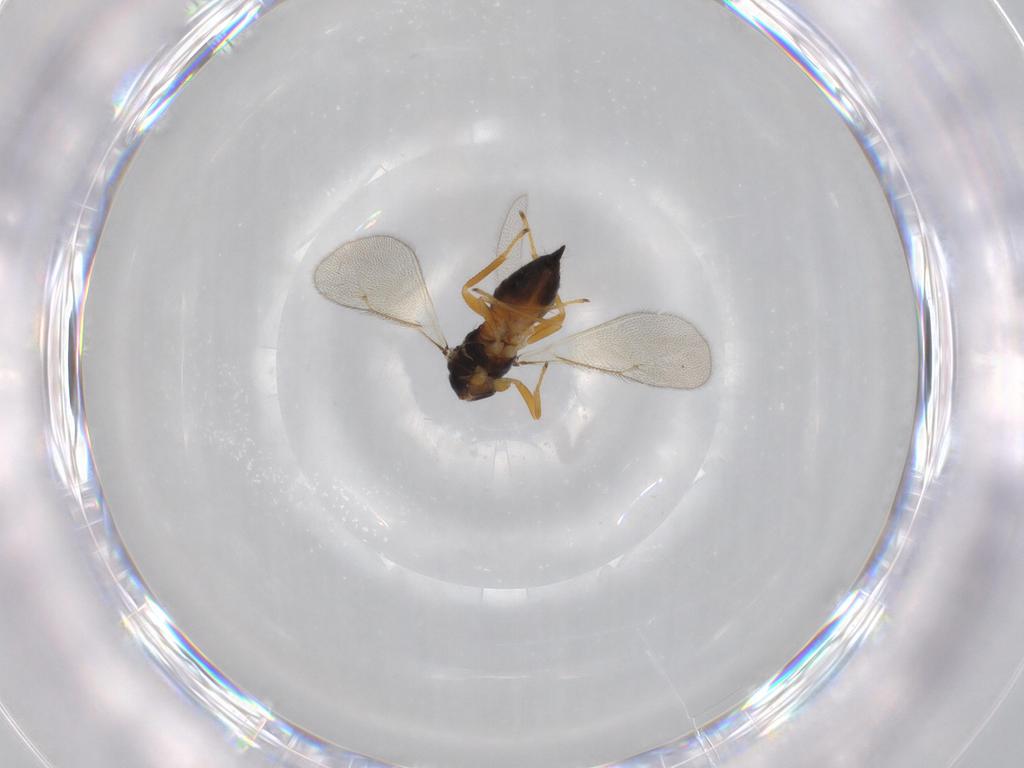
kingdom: Animalia
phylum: Arthropoda
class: Insecta
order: Hymenoptera
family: Eulophidae
